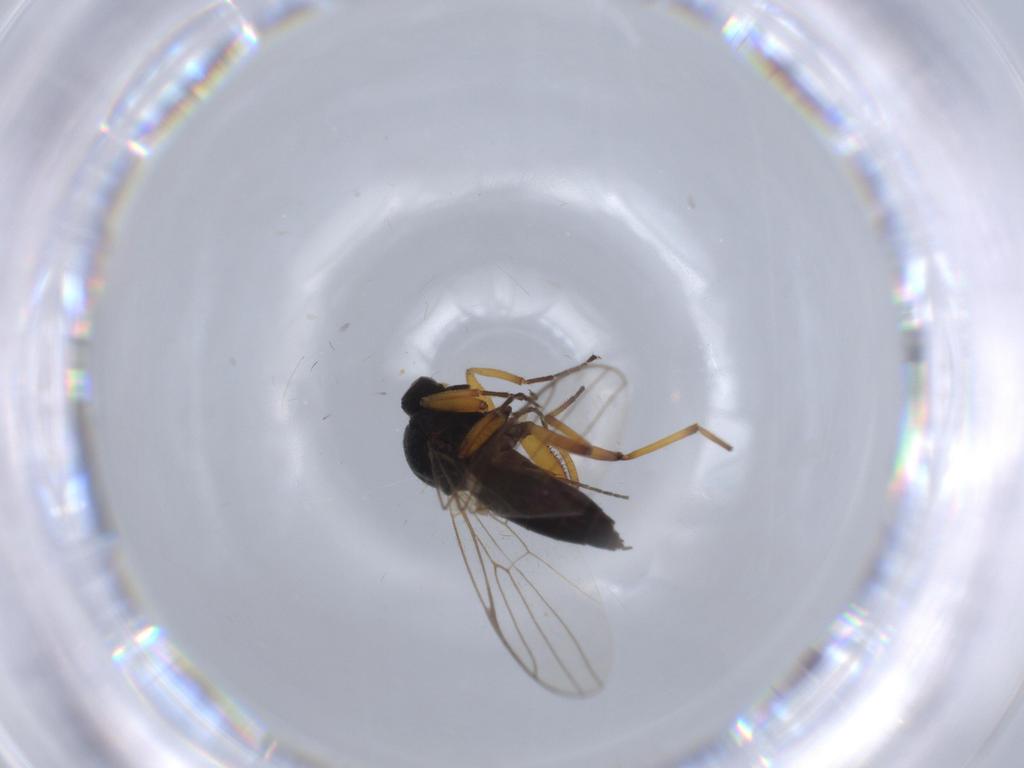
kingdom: Animalia
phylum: Arthropoda
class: Insecta
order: Diptera
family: Hybotidae
